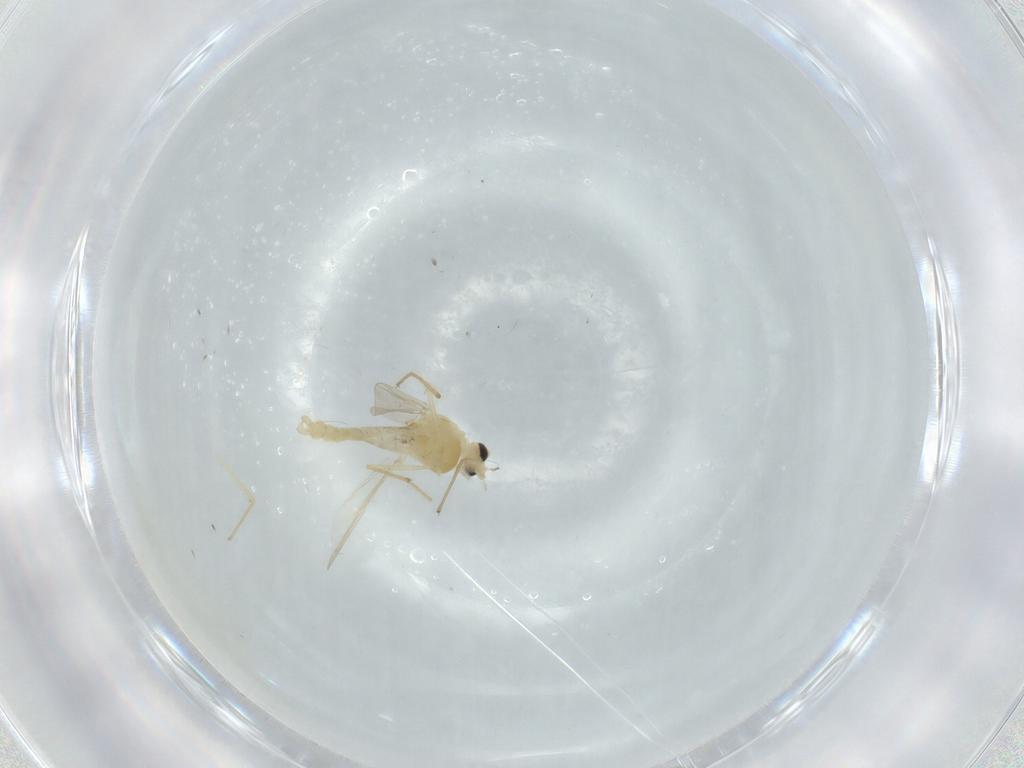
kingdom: Animalia
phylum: Arthropoda
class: Insecta
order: Diptera
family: Chironomidae
